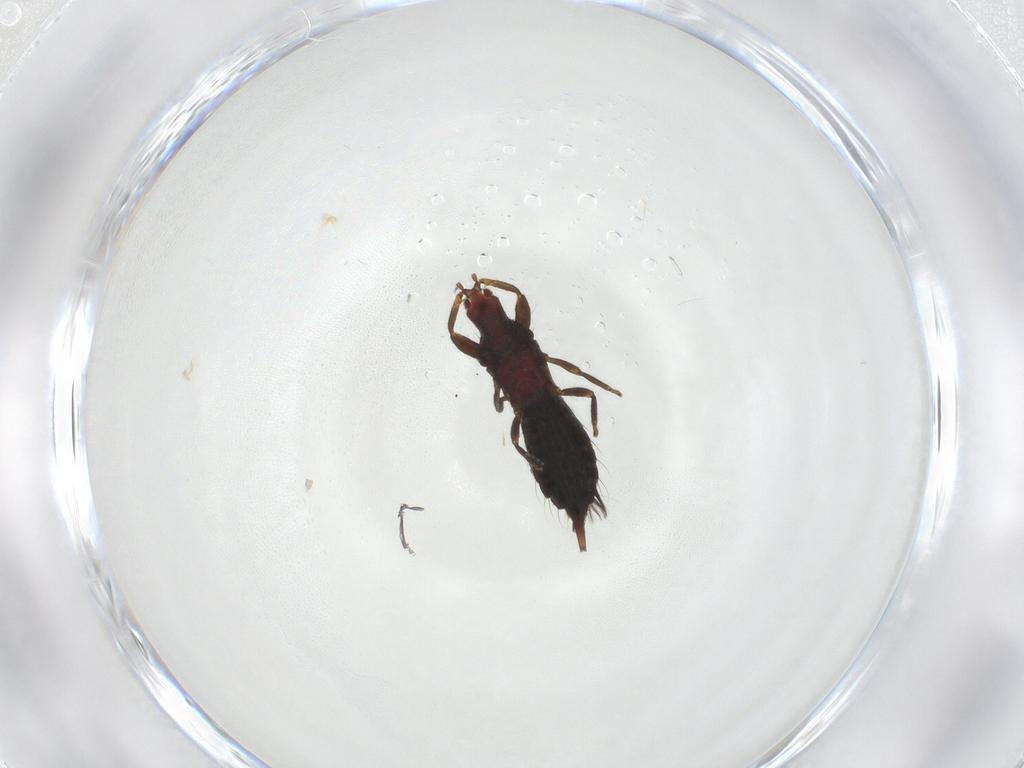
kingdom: Animalia
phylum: Arthropoda
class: Insecta
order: Thysanoptera
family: Phlaeothripidae
